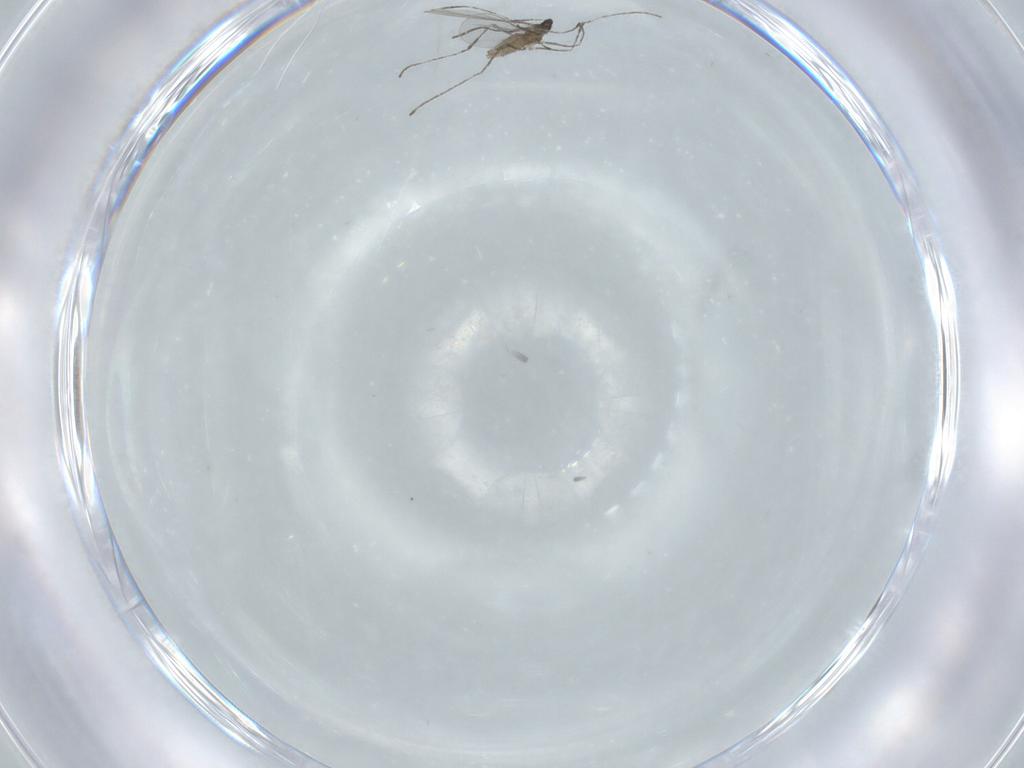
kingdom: Animalia
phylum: Arthropoda
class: Insecta
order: Diptera
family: Cecidomyiidae
